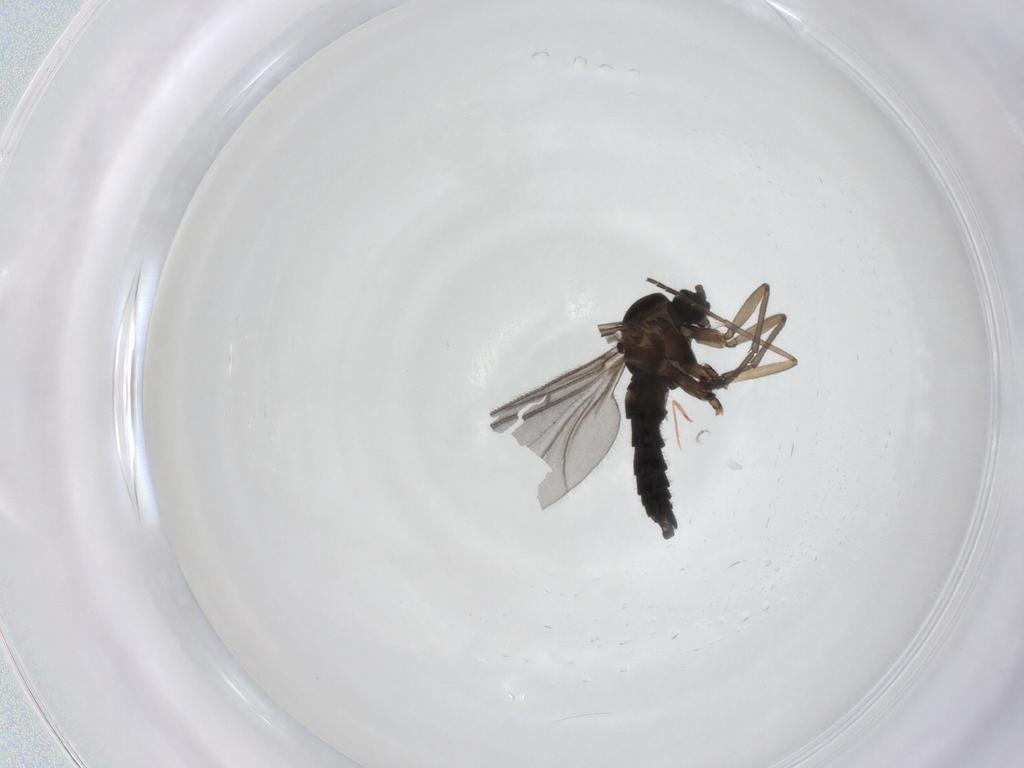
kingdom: Animalia
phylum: Arthropoda
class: Insecta
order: Diptera
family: Sciaridae
